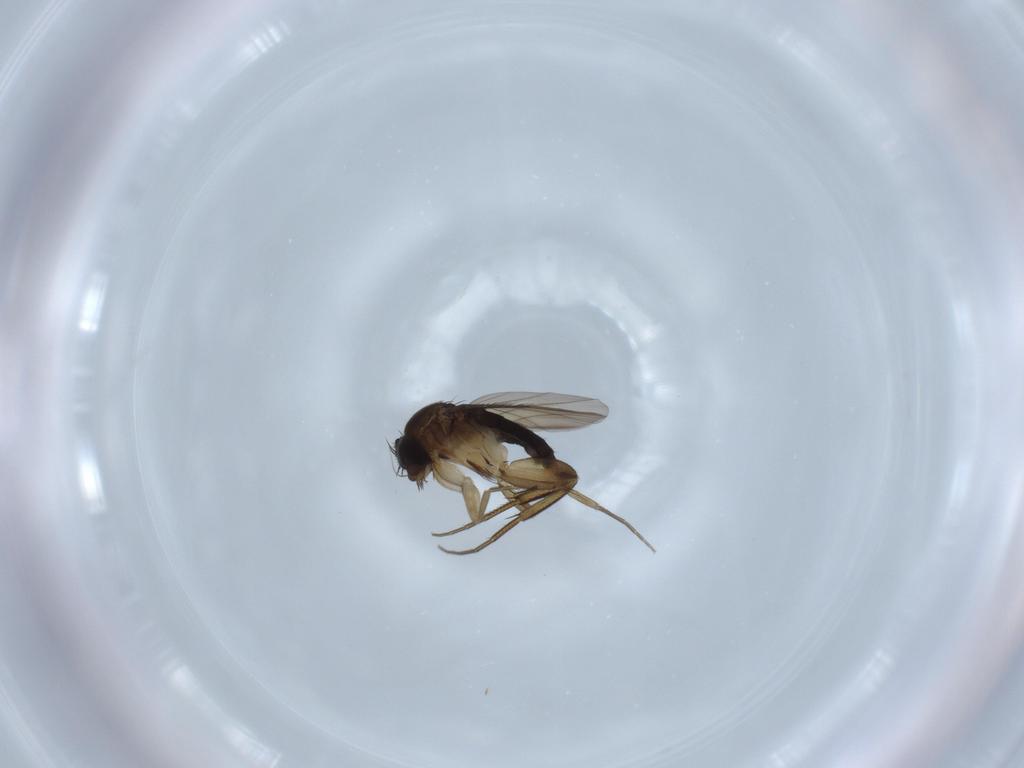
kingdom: Animalia
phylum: Arthropoda
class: Insecta
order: Diptera
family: Phoridae
